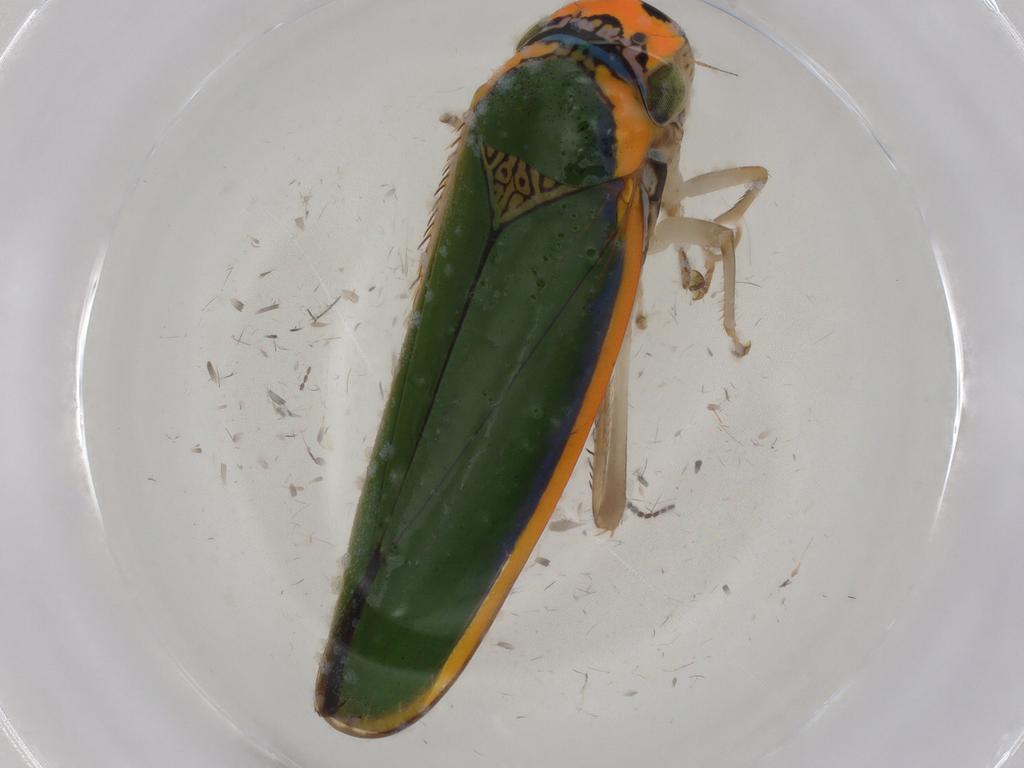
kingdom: Animalia
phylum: Arthropoda
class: Insecta
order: Hemiptera
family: Cicadellidae
